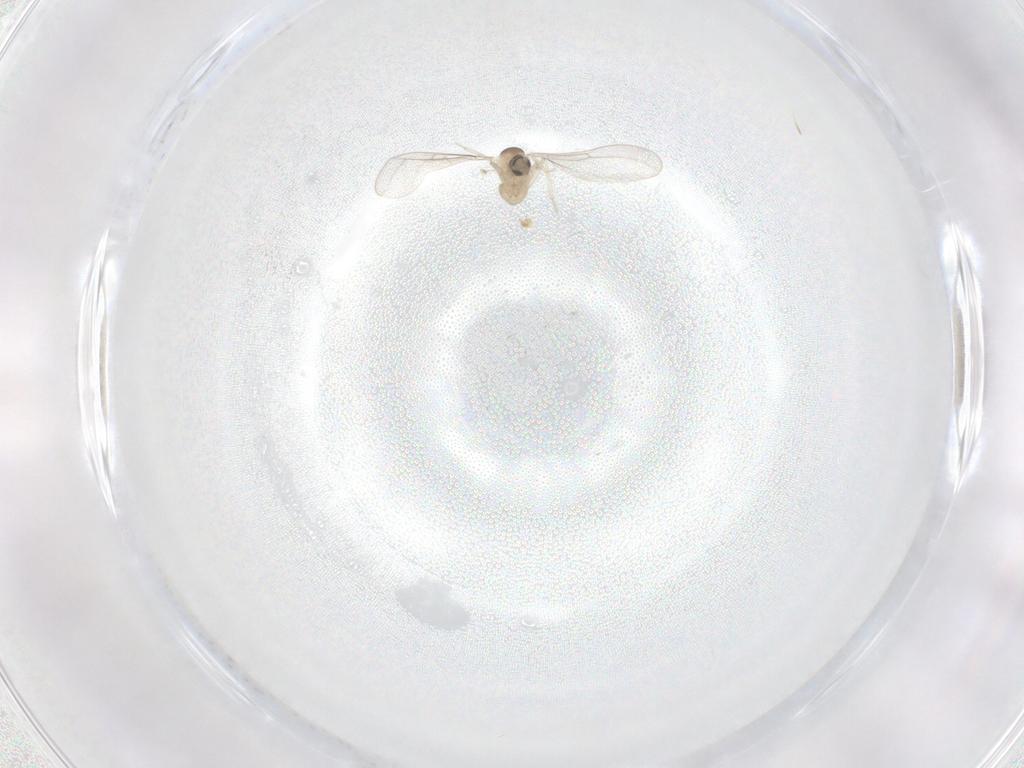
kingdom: Animalia
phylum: Arthropoda
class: Insecta
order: Diptera
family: Cecidomyiidae
